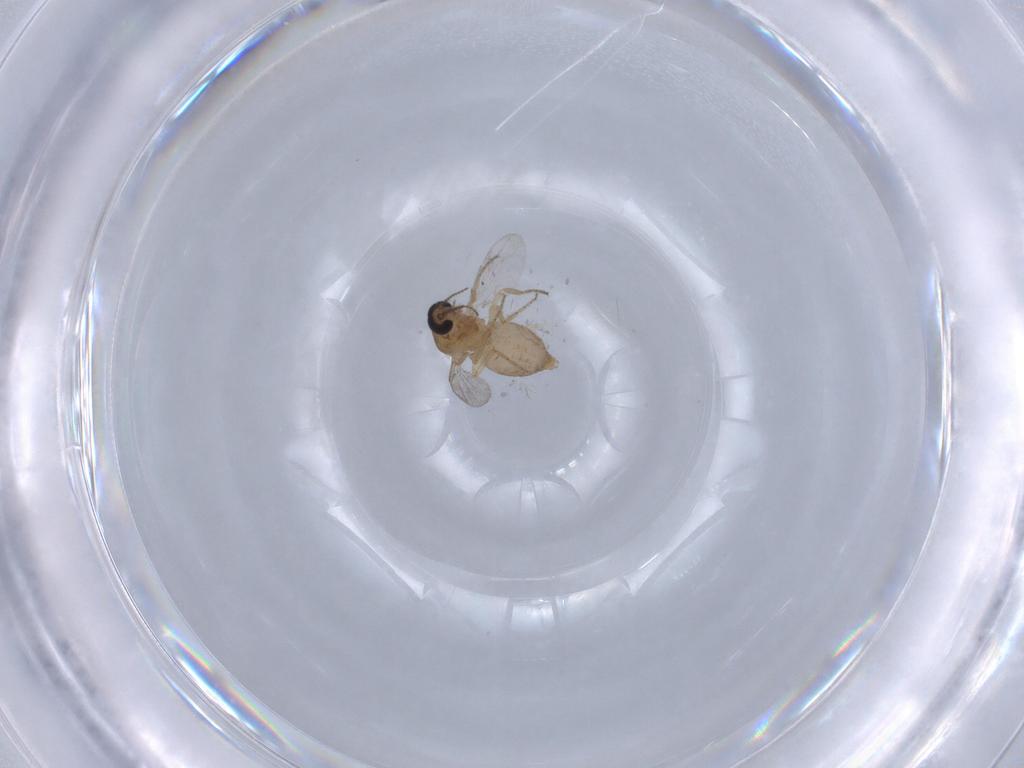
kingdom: Animalia
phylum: Arthropoda
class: Insecta
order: Diptera
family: Ceratopogonidae
